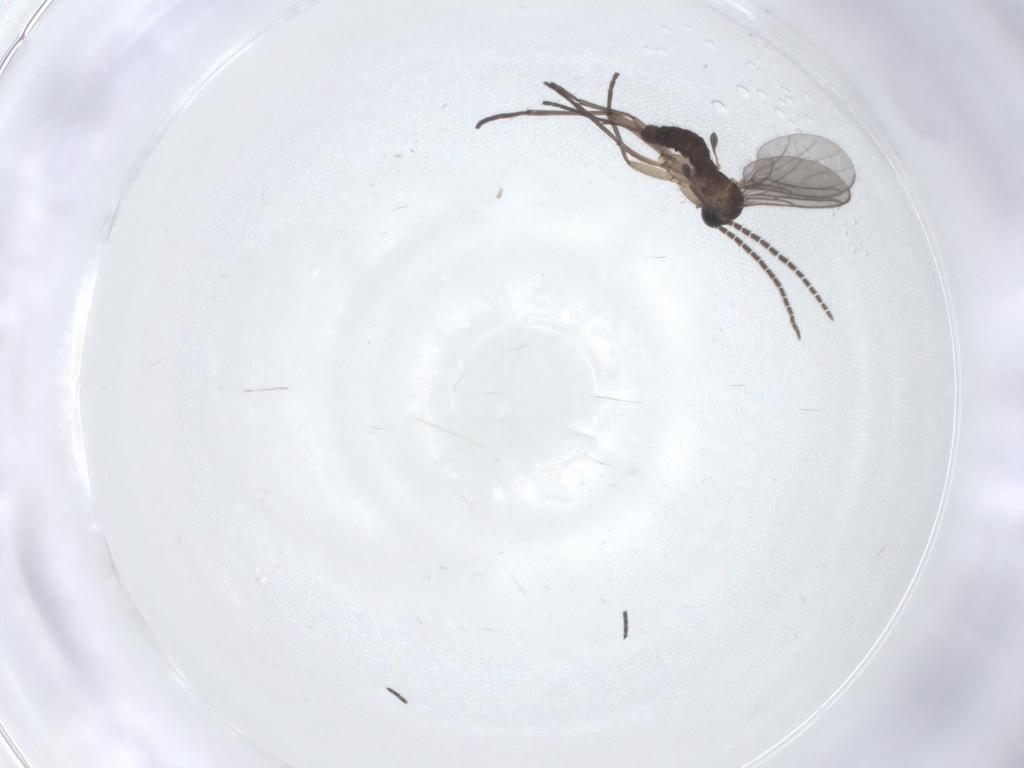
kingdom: Animalia
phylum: Arthropoda
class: Insecta
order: Diptera
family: Sciaridae
